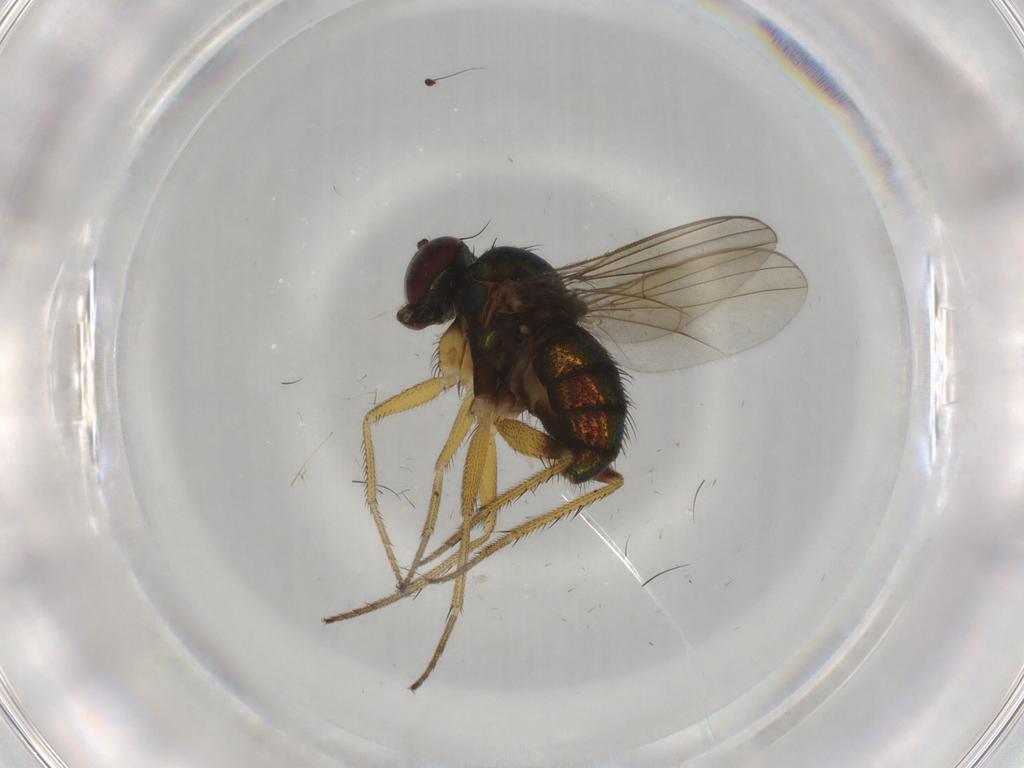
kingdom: Animalia
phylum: Arthropoda
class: Insecta
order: Diptera
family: Dolichopodidae
